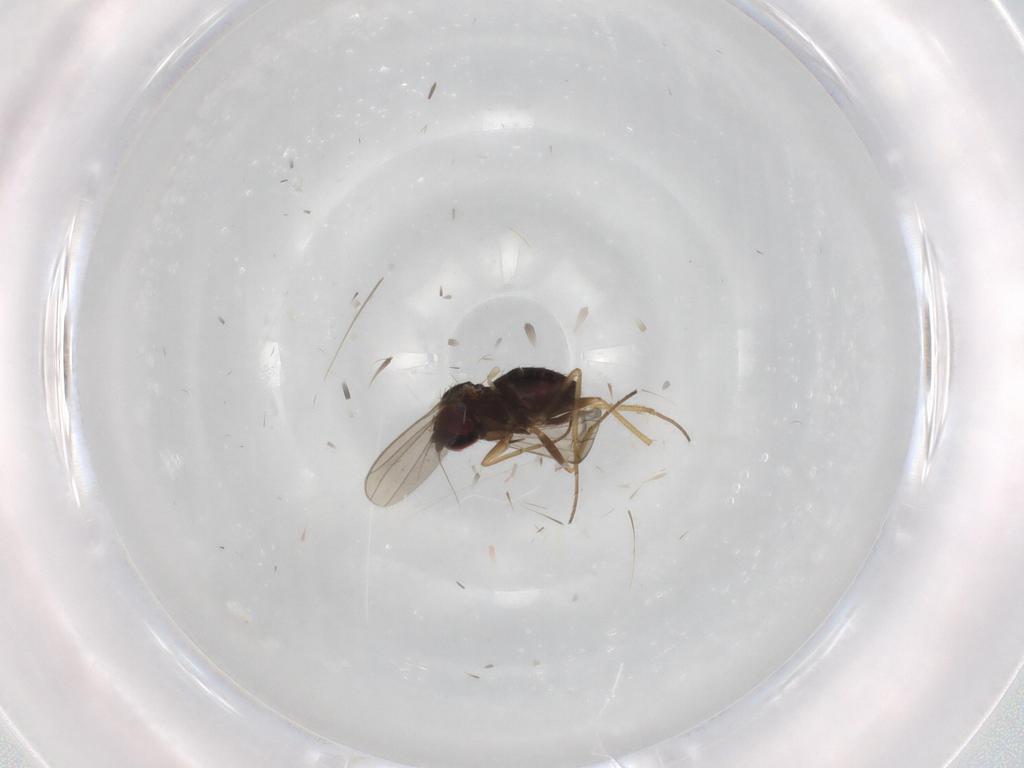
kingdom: Animalia
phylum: Arthropoda
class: Insecta
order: Diptera
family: Dolichopodidae
